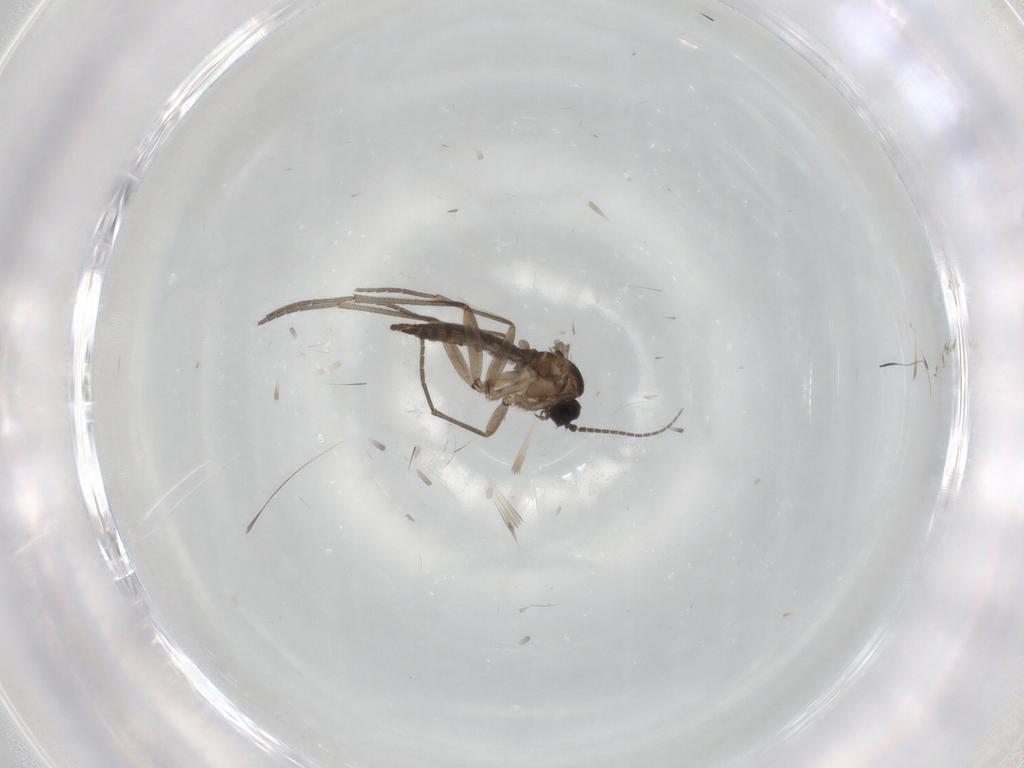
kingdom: Animalia
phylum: Arthropoda
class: Insecta
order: Diptera
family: Sciaridae
